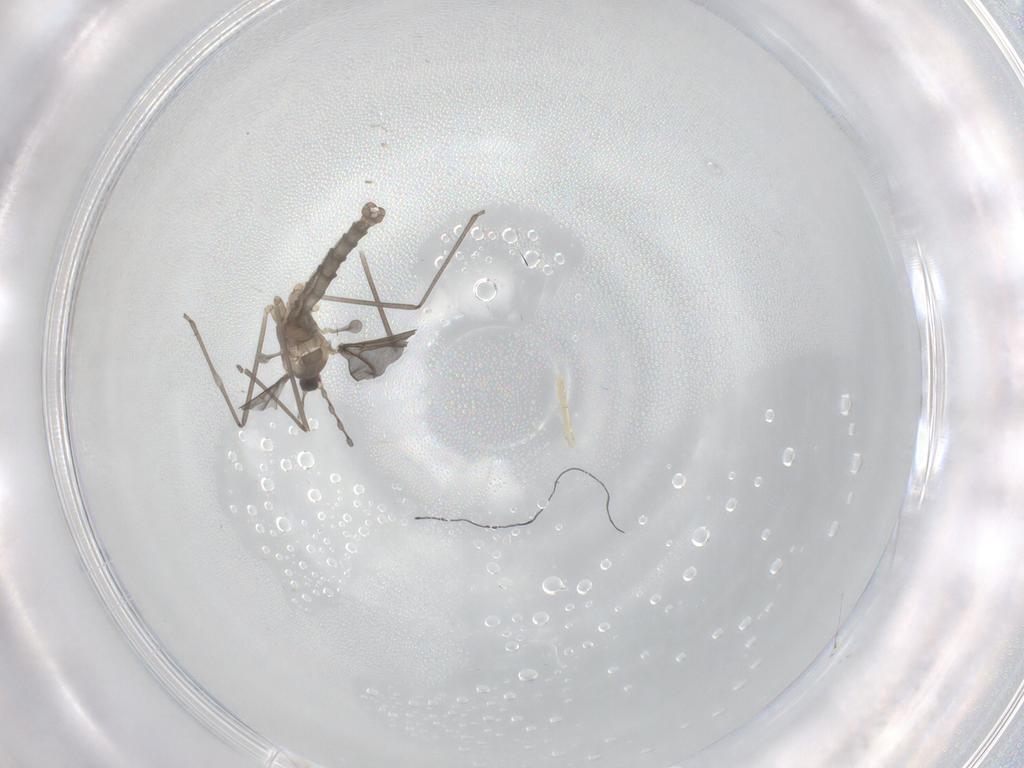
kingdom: Animalia
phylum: Arthropoda
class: Insecta
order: Diptera
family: Cecidomyiidae
